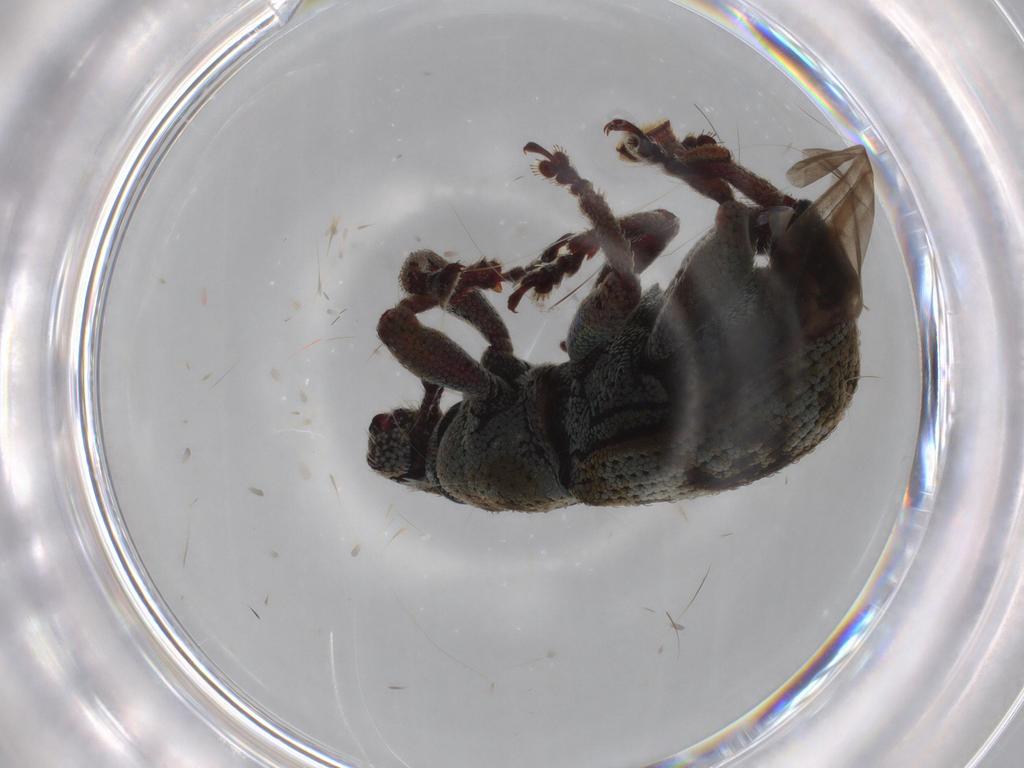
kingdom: Animalia
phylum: Arthropoda
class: Insecta
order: Coleoptera
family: Curculionidae
